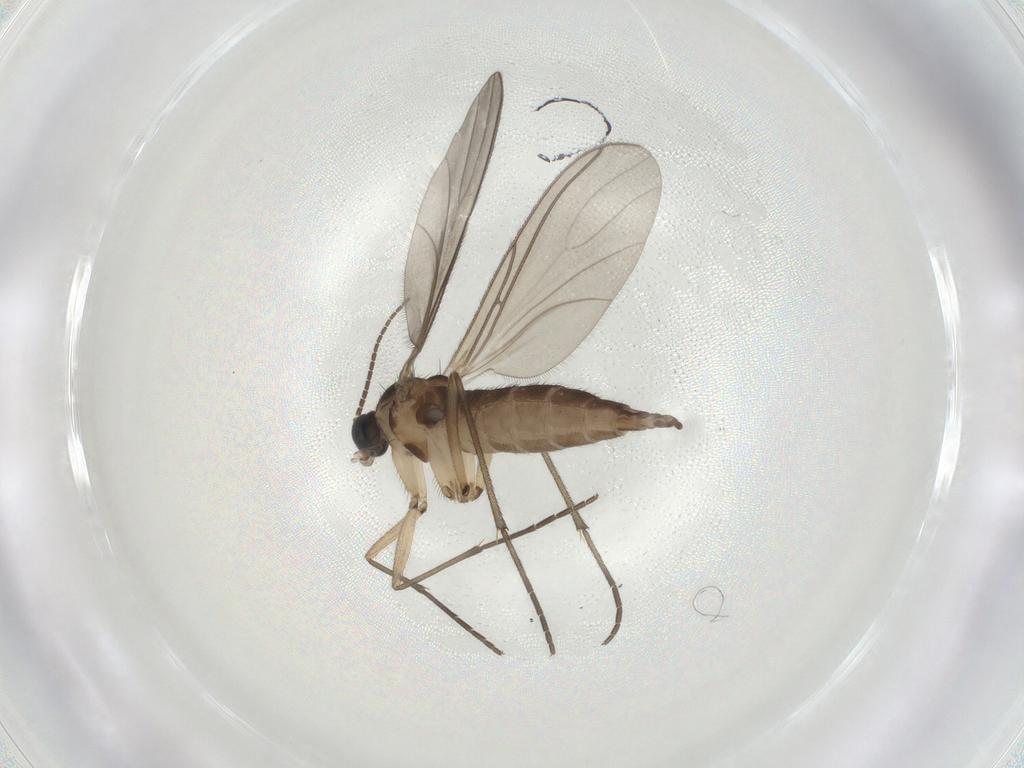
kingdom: Animalia
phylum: Arthropoda
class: Insecta
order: Diptera
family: Sciaridae
